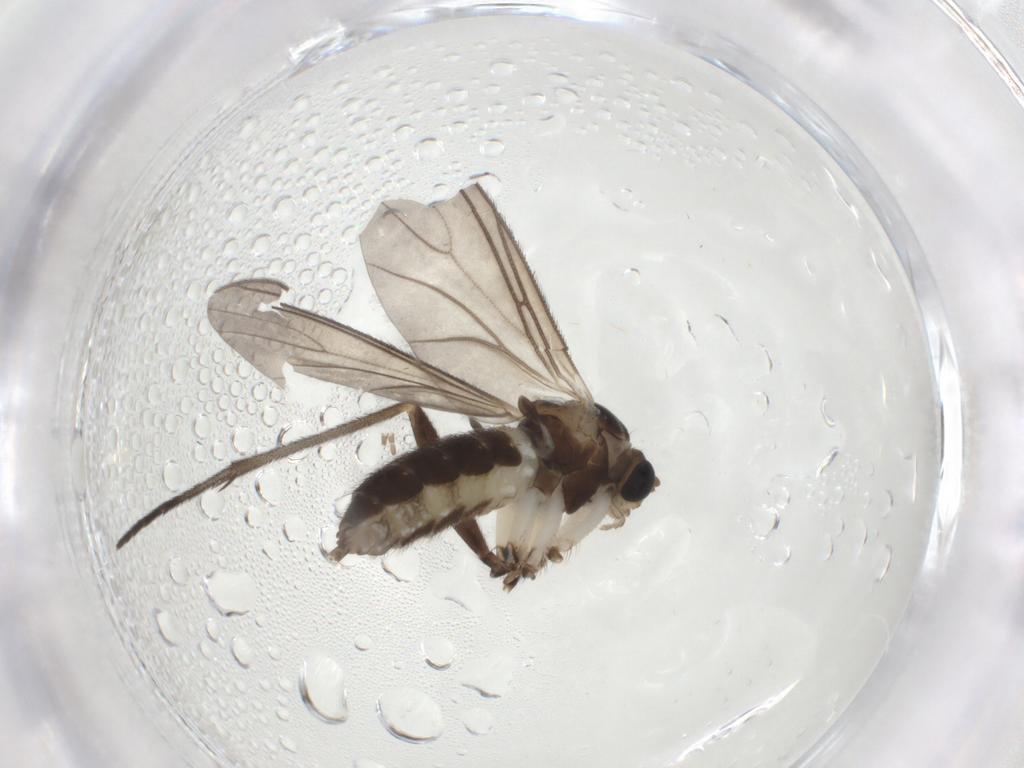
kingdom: Animalia
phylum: Arthropoda
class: Insecta
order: Diptera
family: Sciaridae
